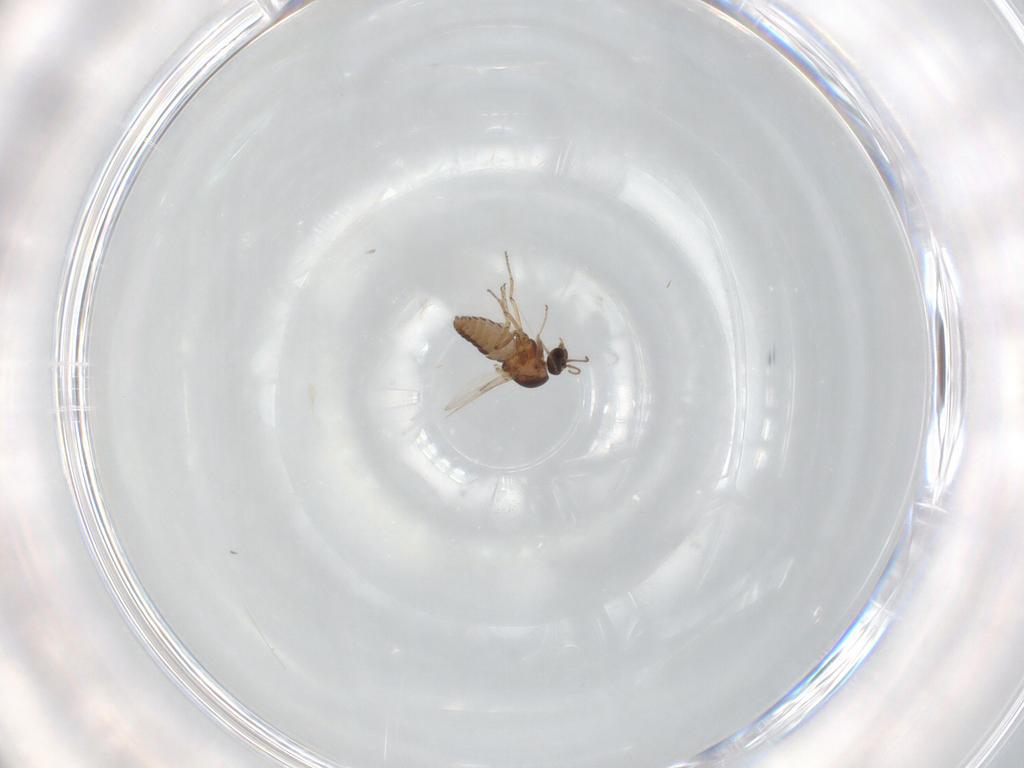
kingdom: Animalia
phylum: Arthropoda
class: Insecta
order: Diptera
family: Ceratopogonidae
